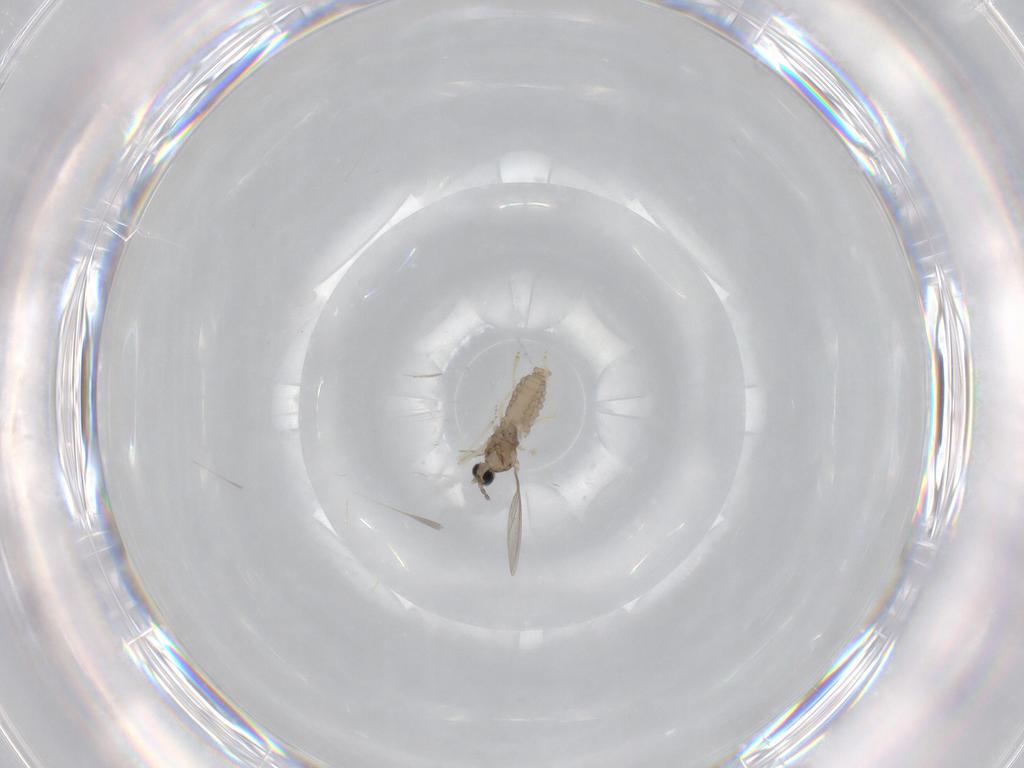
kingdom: Animalia
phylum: Arthropoda
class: Insecta
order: Diptera
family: Cecidomyiidae
